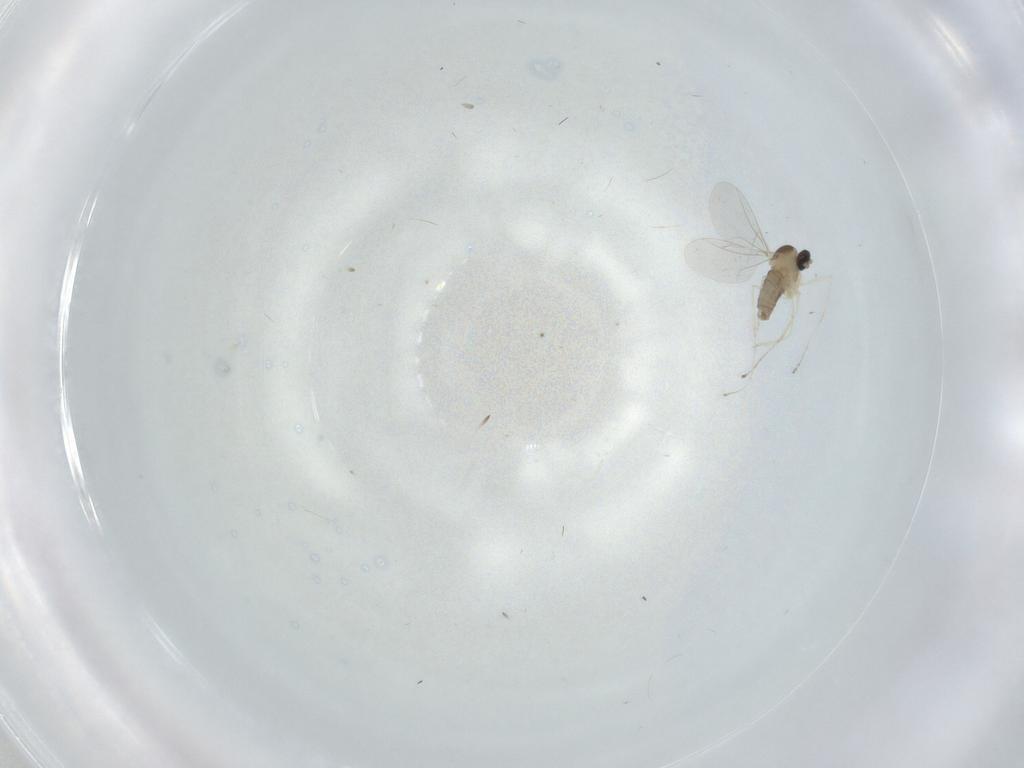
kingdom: Animalia
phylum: Arthropoda
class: Insecta
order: Diptera
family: Cecidomyiidae
